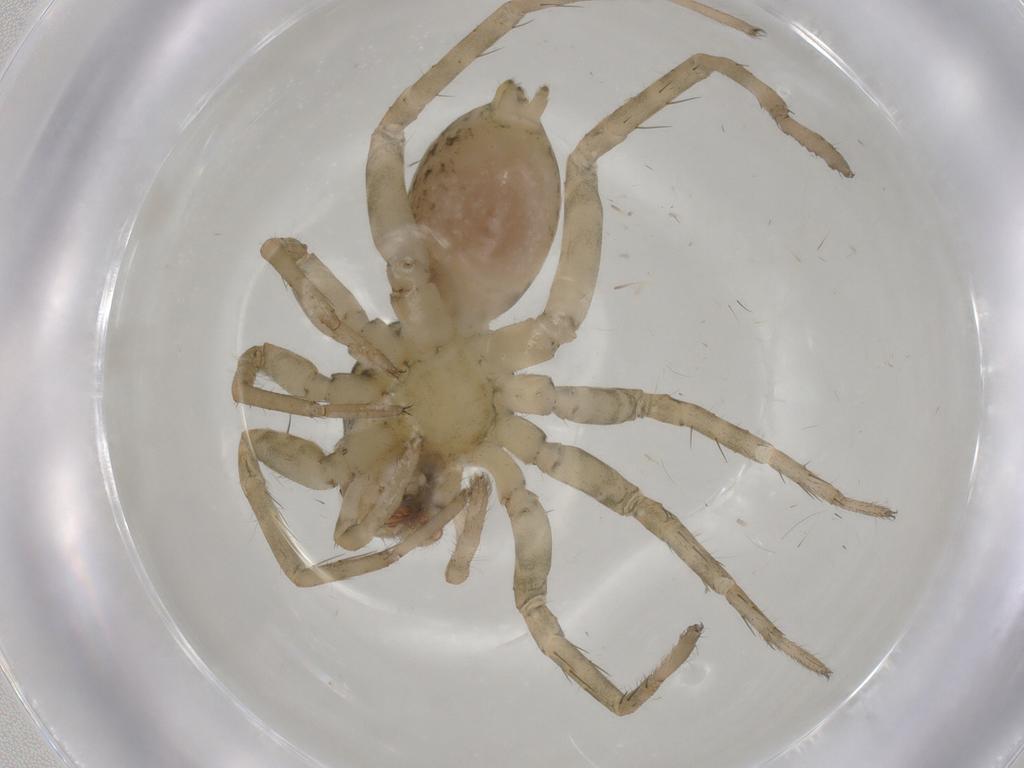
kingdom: Animalia
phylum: Arthropoda
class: Arachnida
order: Araneae
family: Lycosidae
